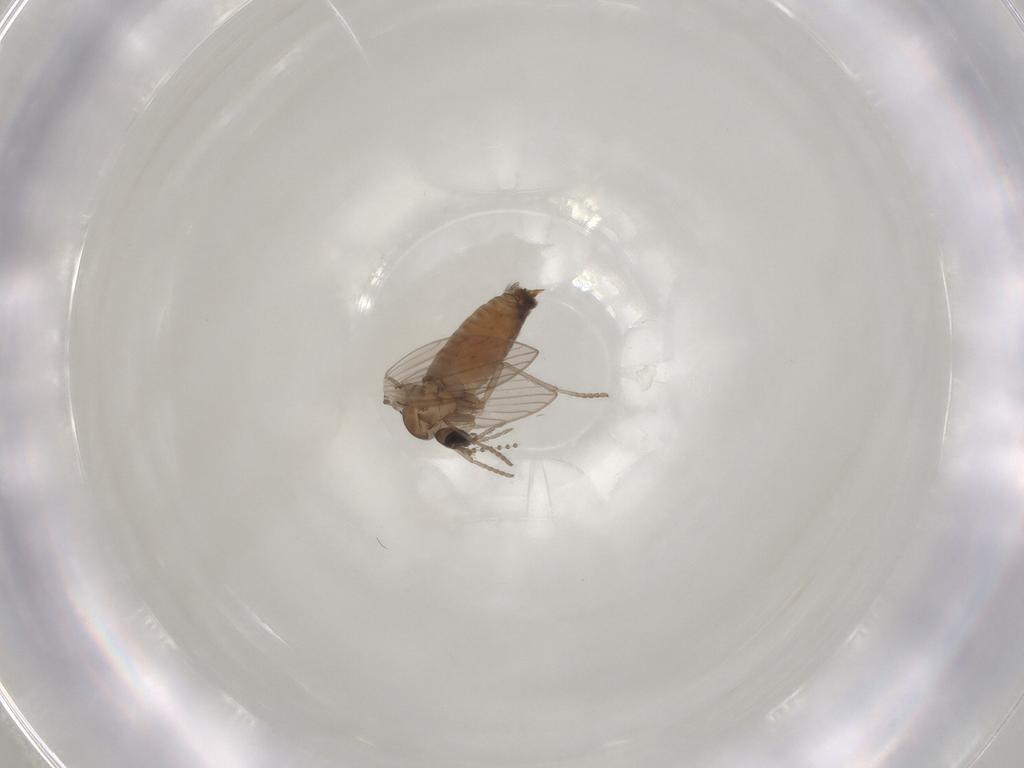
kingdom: Animalia
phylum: Arthropoda
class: Insecta
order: Diptera
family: Psychodidae
